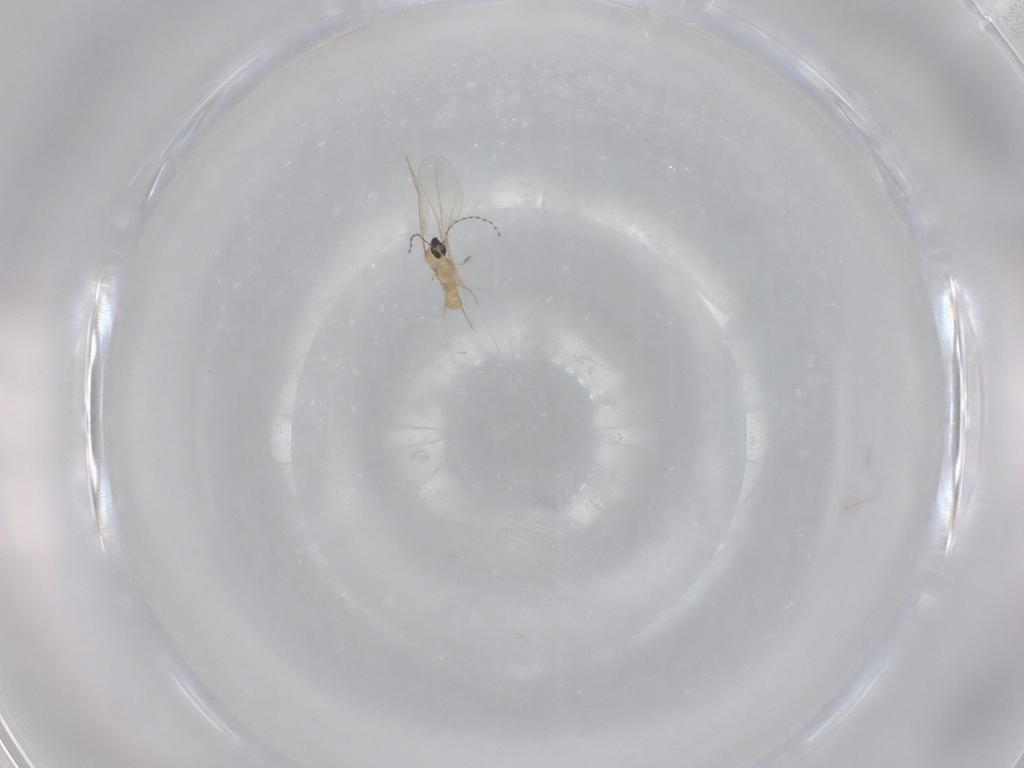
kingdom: Animalia
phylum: Arthropoda
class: Insecta
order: Diptera
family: Cecidomyiidae
